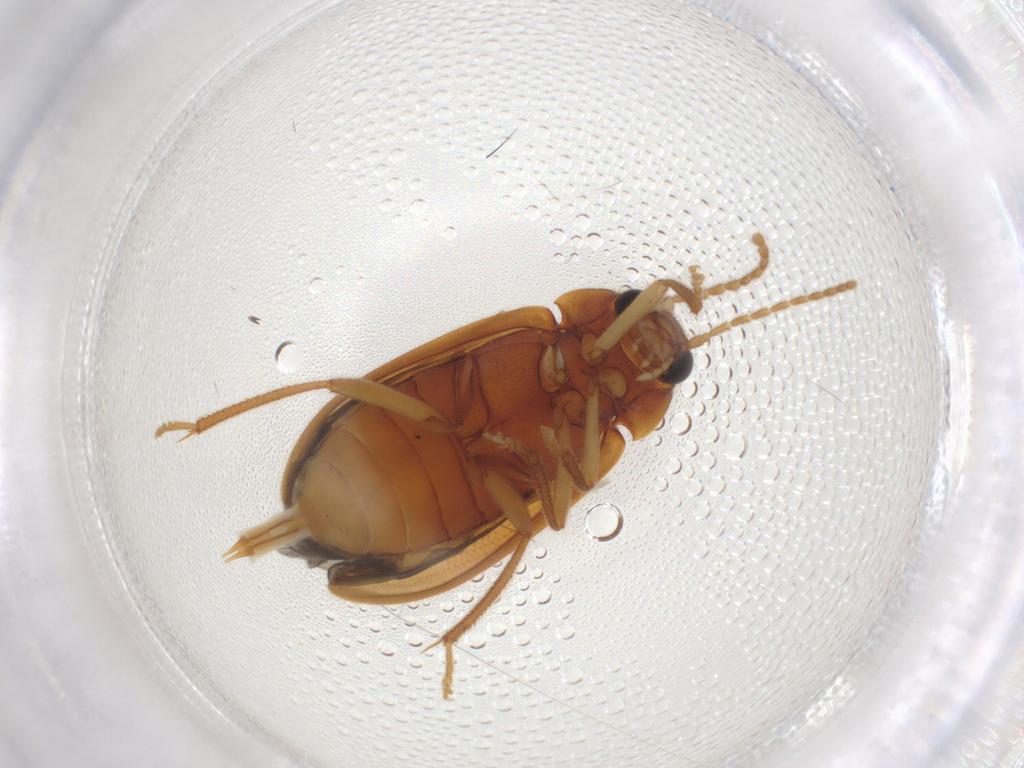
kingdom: Animalia
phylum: Arthropoda
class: Insecta
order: Coleoptera
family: Ptilodactylidae
